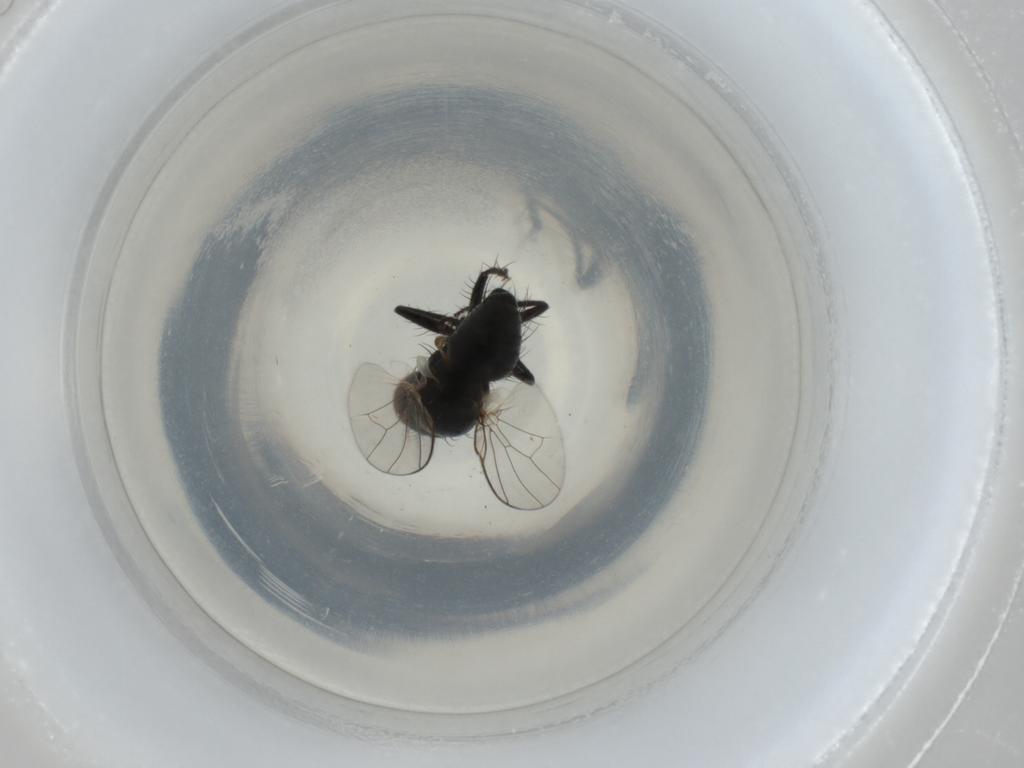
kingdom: Animalia
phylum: Arthropoda
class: Insecta
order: Diptera
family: Muscidae
